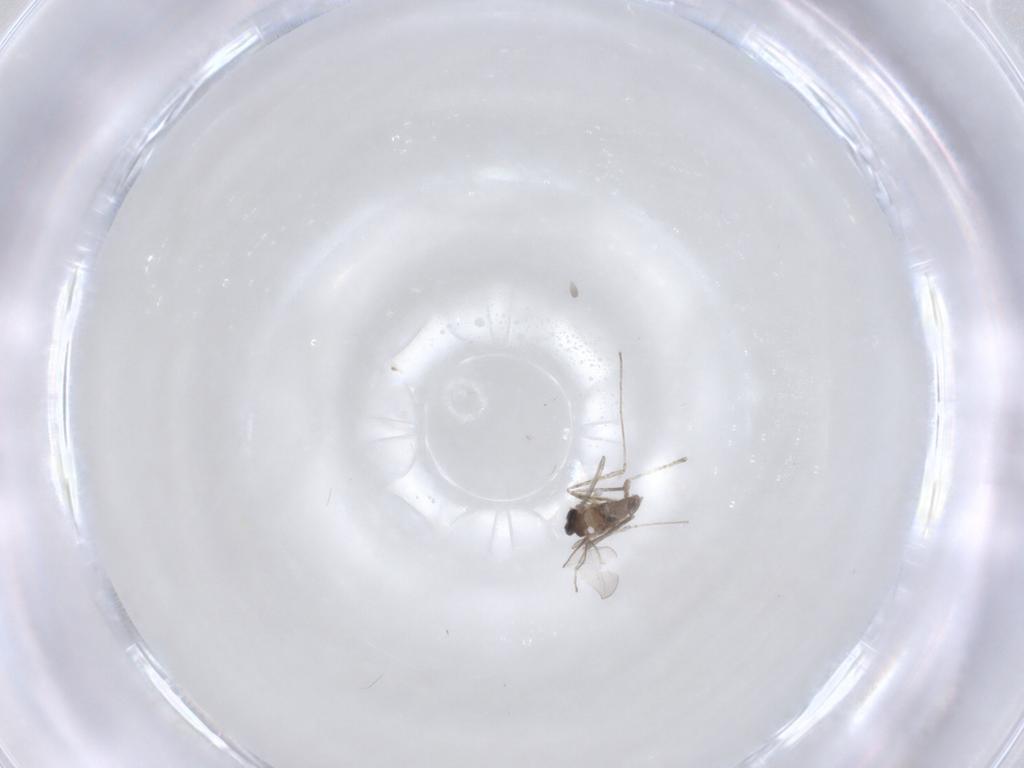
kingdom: Animalia
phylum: Arthropoda
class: Insecta
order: Diptera
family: Cecidomyiidae
